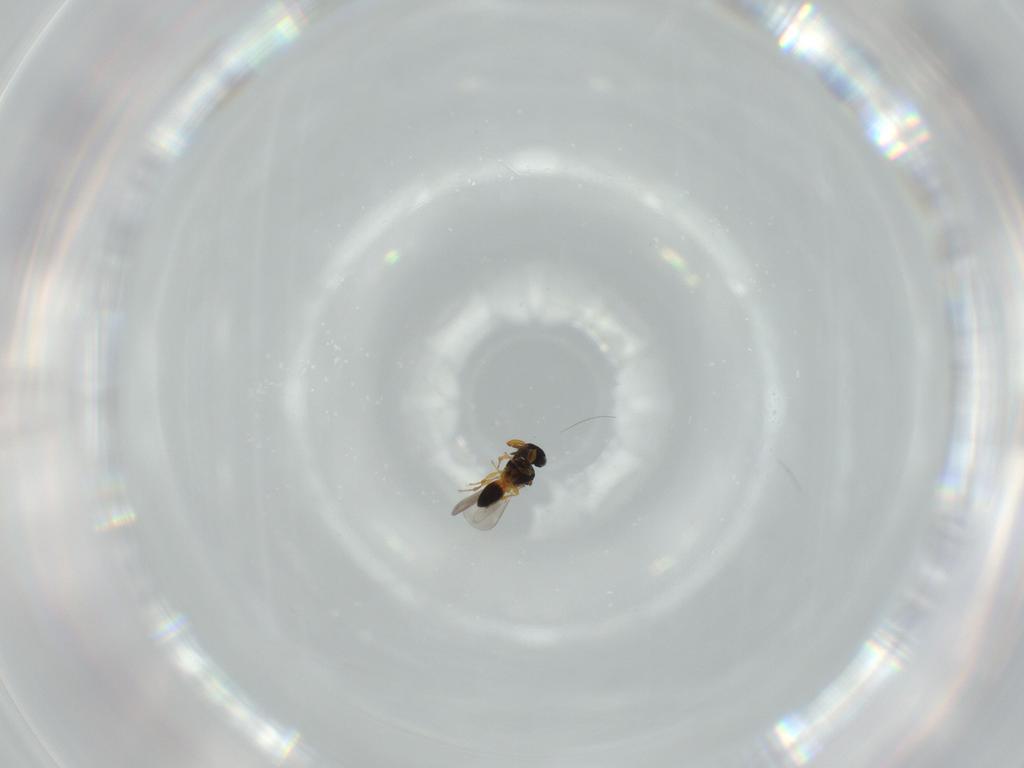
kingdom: Animalia
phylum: Arthropoda
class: Insecta
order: Hymenoptera
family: Platygastridae
